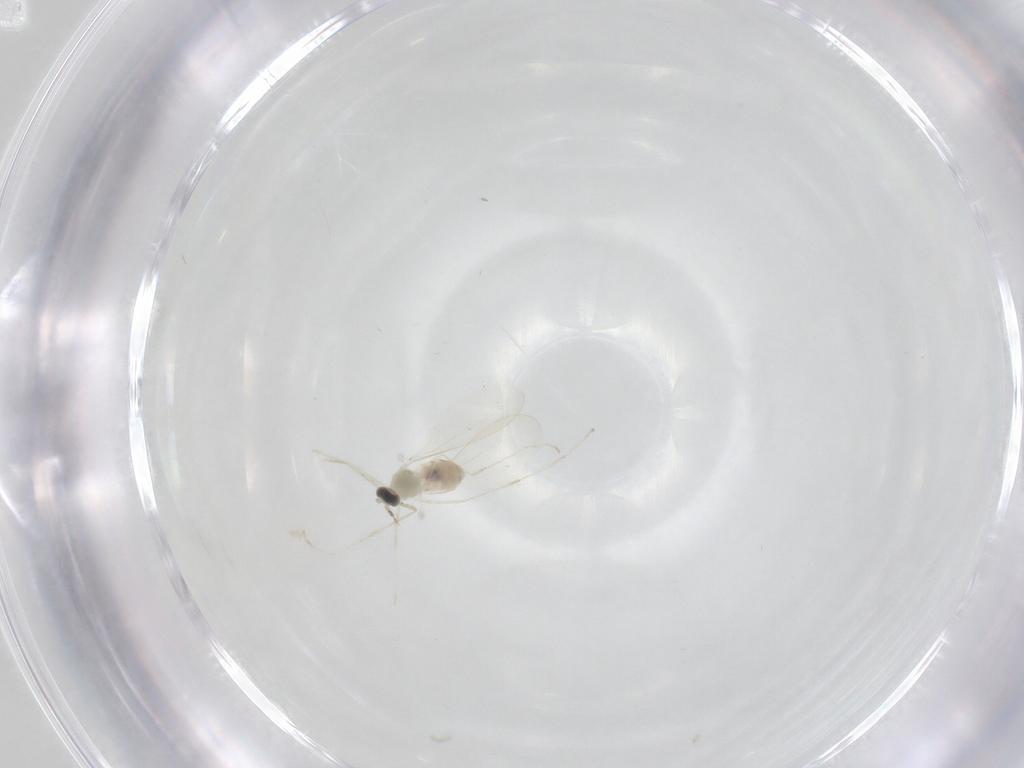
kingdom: Animalia
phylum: Arthropoda
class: Insecta
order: Diptera
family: Cecidomyiidae
